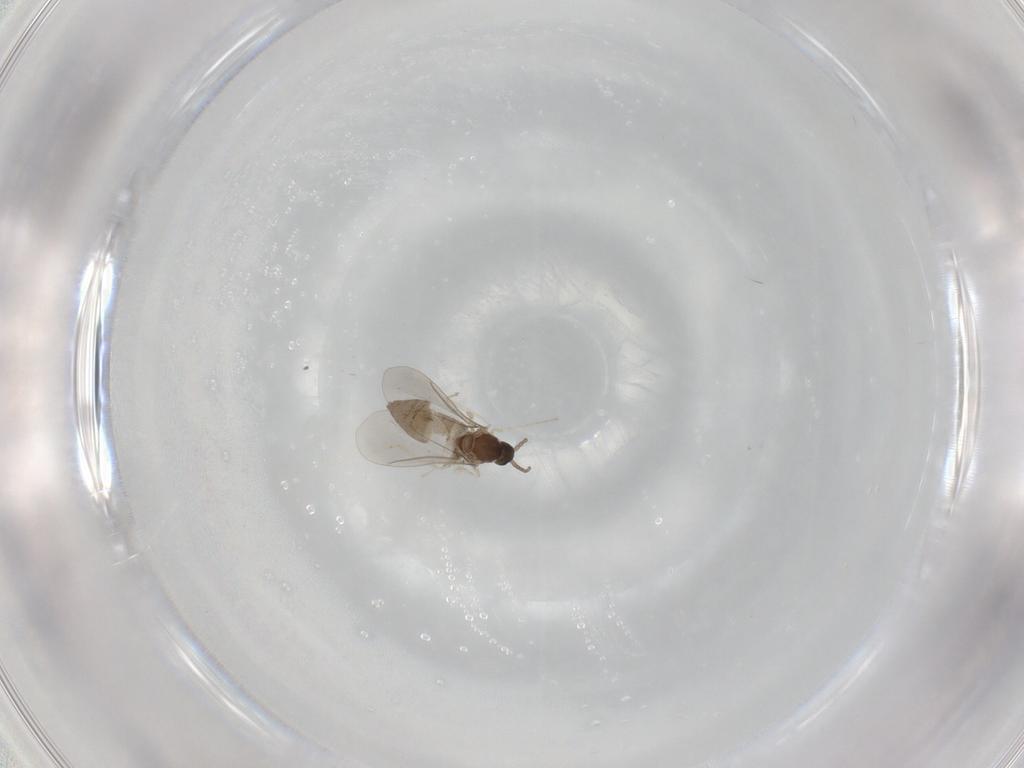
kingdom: Animalia
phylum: Arthropoda
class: Insecta
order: Diptera
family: Cecidomyiidae
